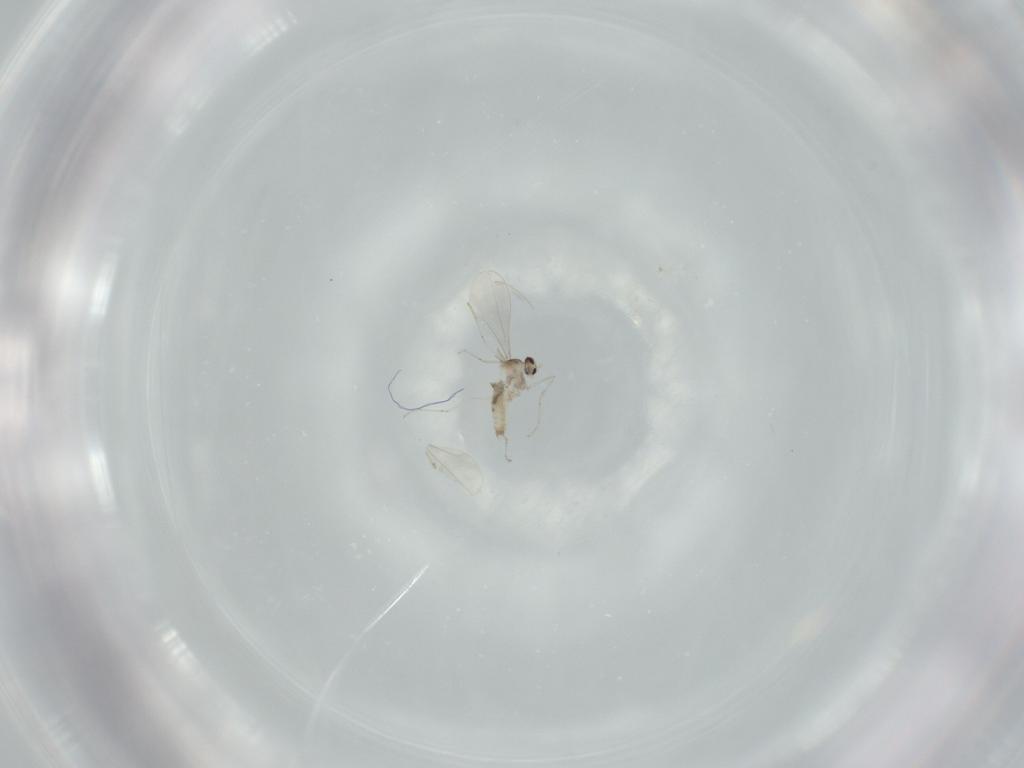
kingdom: Animalia
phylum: Arthropoda
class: Insecta
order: Diptera
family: Cecidomyiidae
